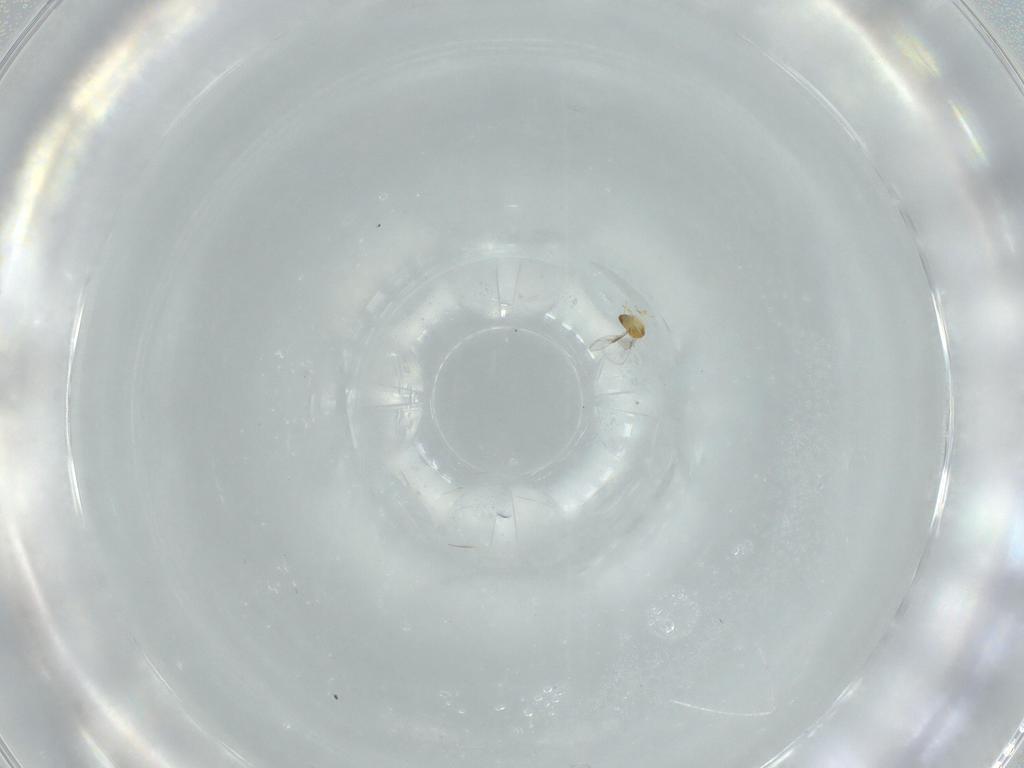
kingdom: Animalia
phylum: Arthropoda
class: Insecta
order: Hymenoptera
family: Trichogrammatidae
